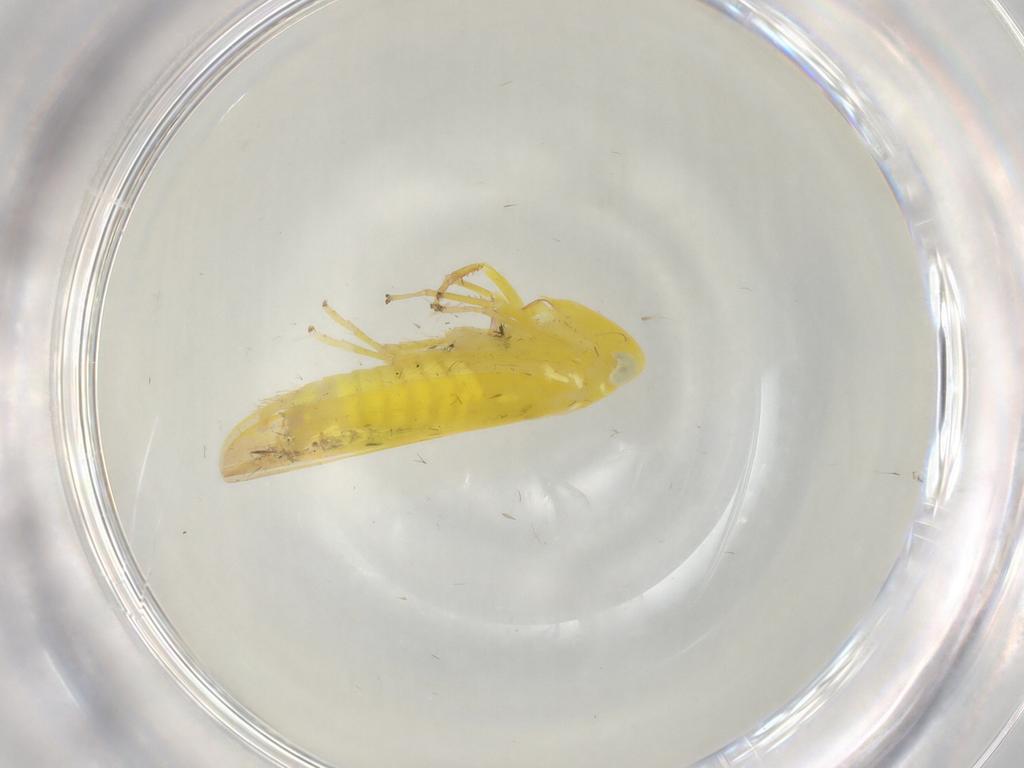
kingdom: Animalia
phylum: Arthropoda
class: Insecta
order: Hemiptera
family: Cicadellidae
